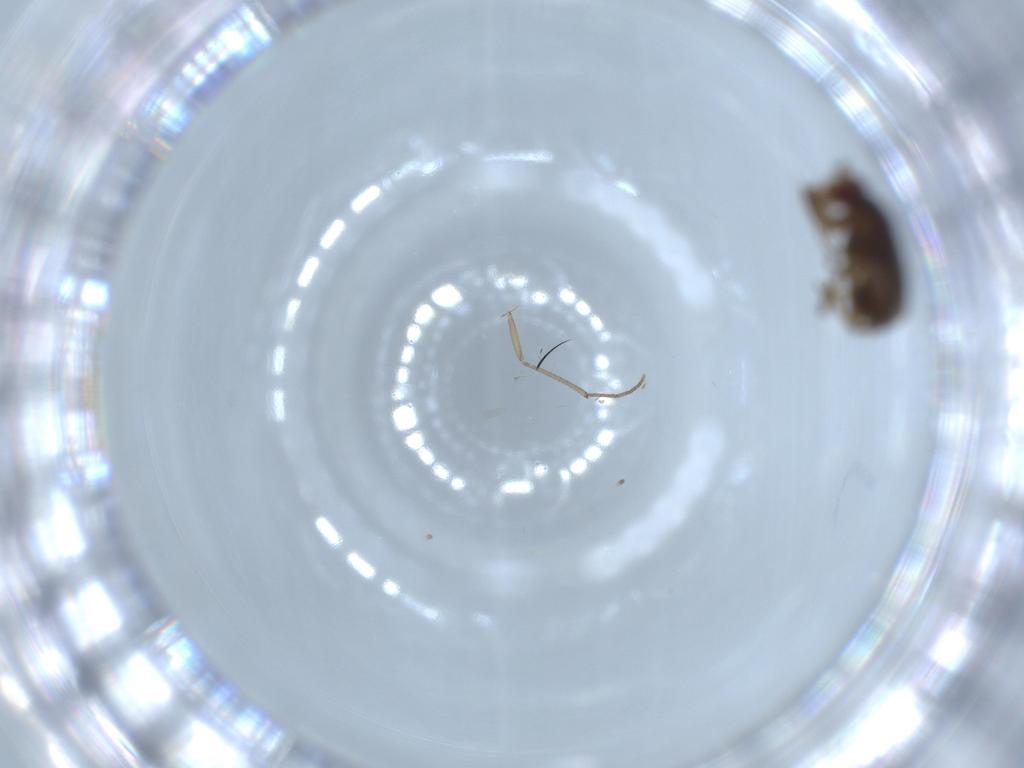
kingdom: Animalia
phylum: Arthropoda
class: Insecta
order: Diptera
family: Sphaeroceridae
